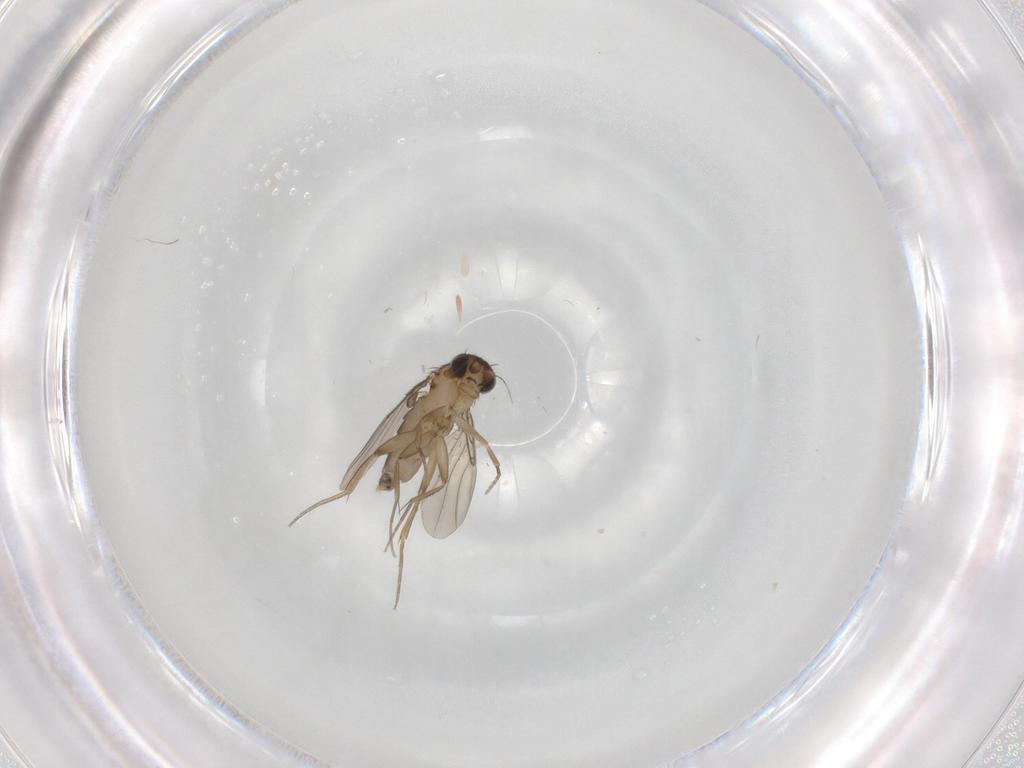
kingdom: Animalia
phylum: Arthropoda
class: Insecta
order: Diptera
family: Phoridae
